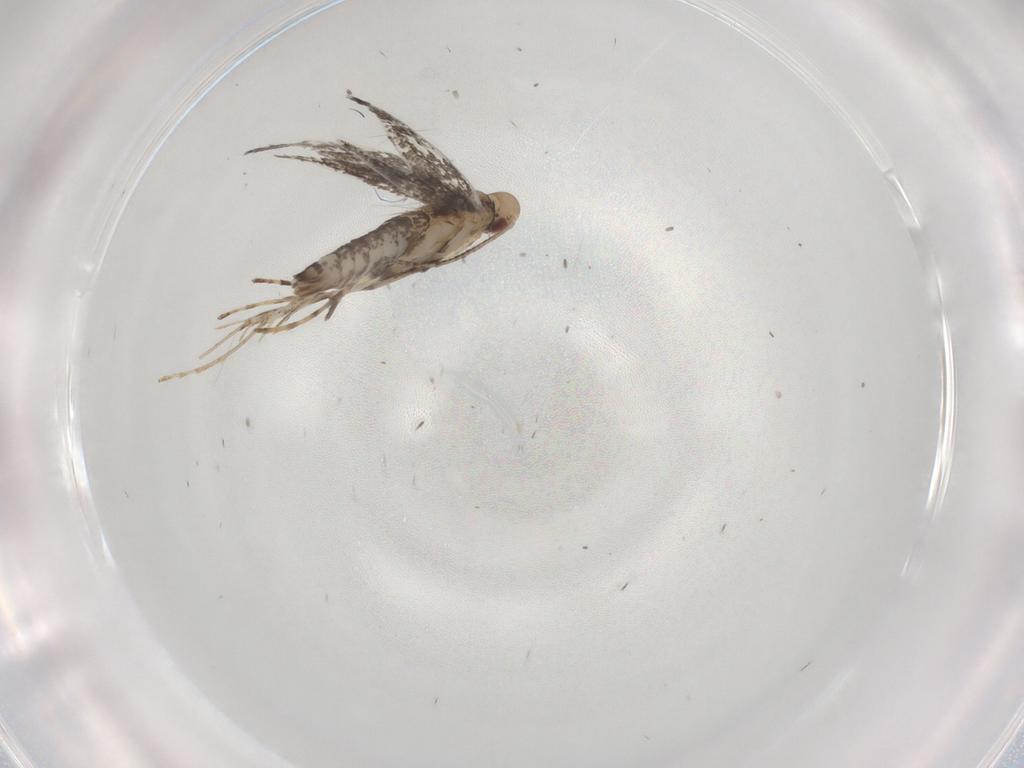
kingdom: Animalia
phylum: Arthropoda
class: Insecta
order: Lepidoptera
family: Gracillariidae
